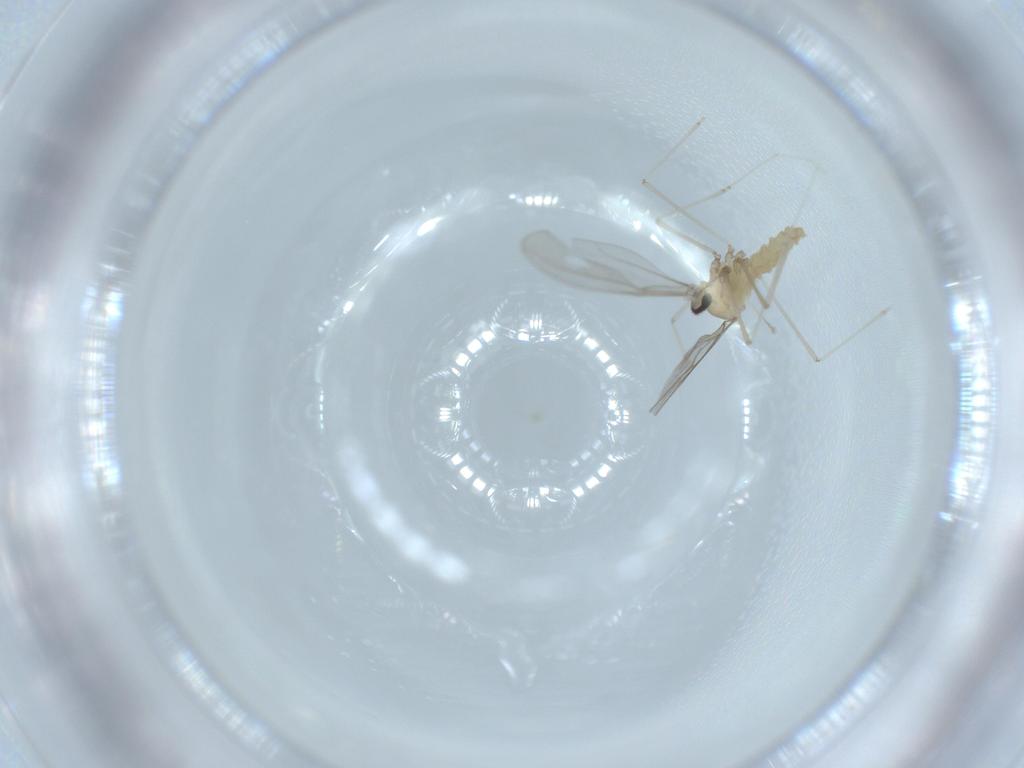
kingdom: Animalia
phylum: Arthropoda
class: Insecta
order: Diptera
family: Cecidomyiidae
